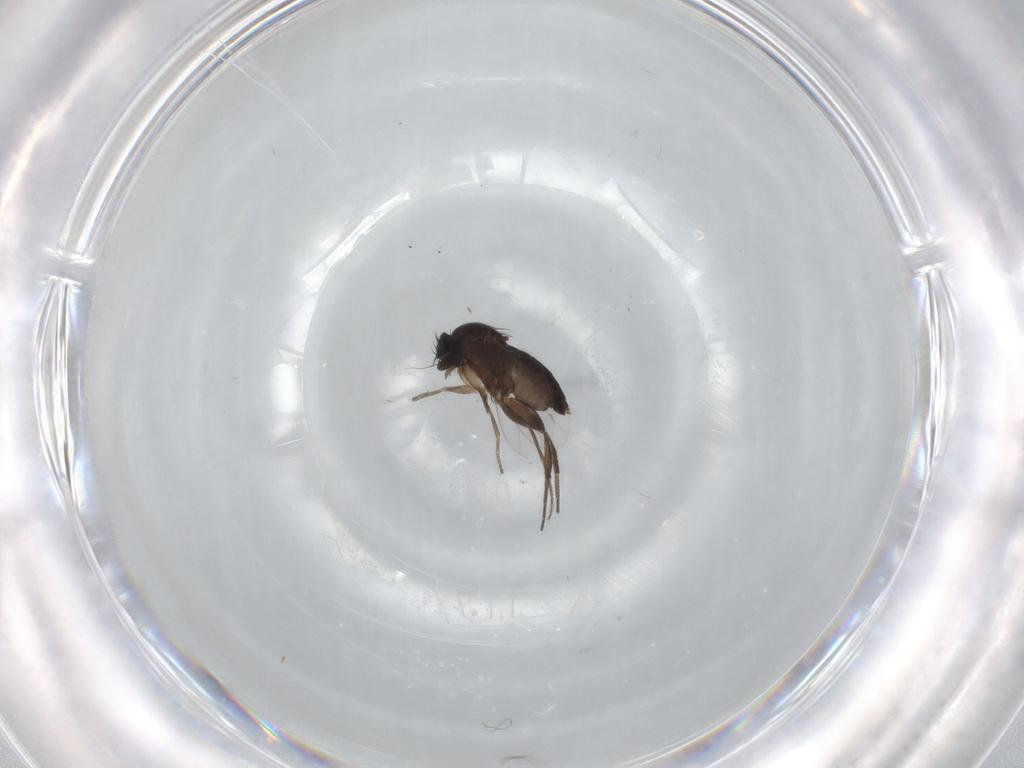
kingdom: Animalia
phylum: Arthropoda
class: Insecta
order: Diptera
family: Phoridae
